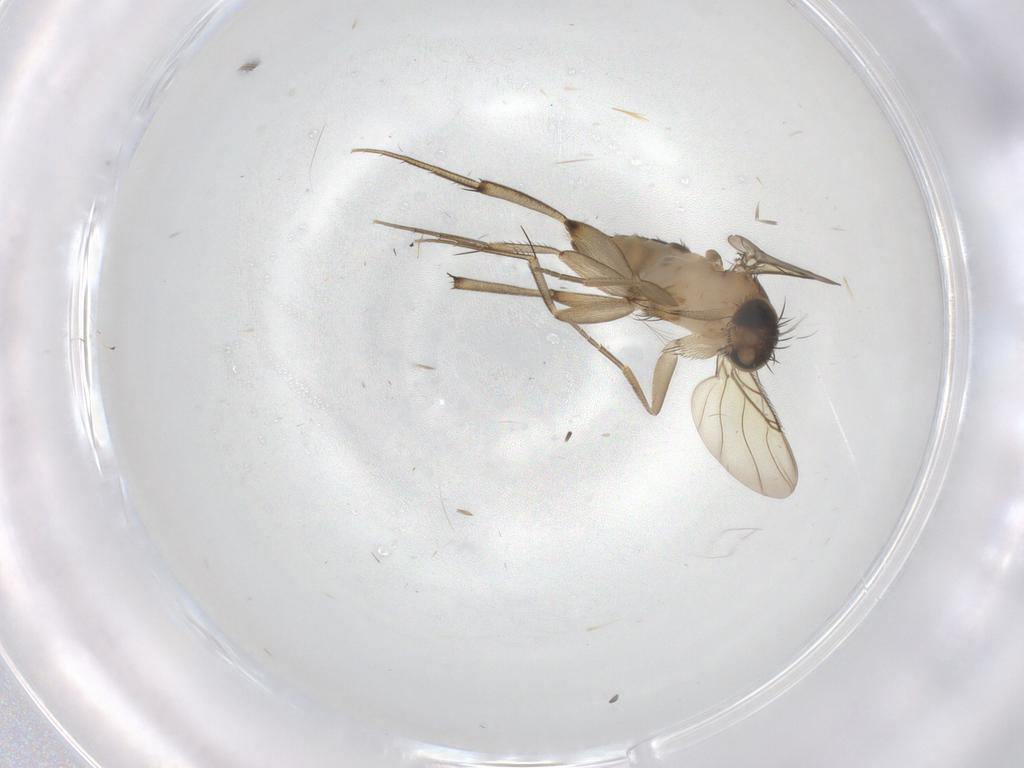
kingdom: Animalia
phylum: Arthropoda
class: Insecta
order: Diptera
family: Phoridae
